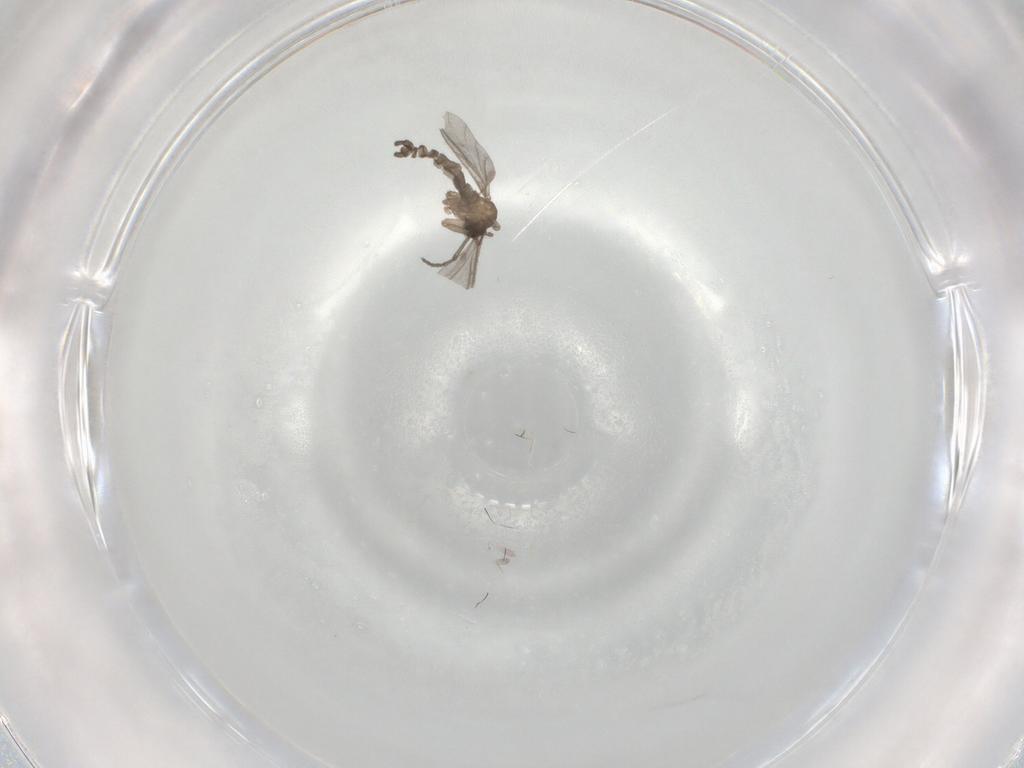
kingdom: Animalia
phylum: Arthropoda
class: Insecta
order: Diptera
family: Sciaridae
